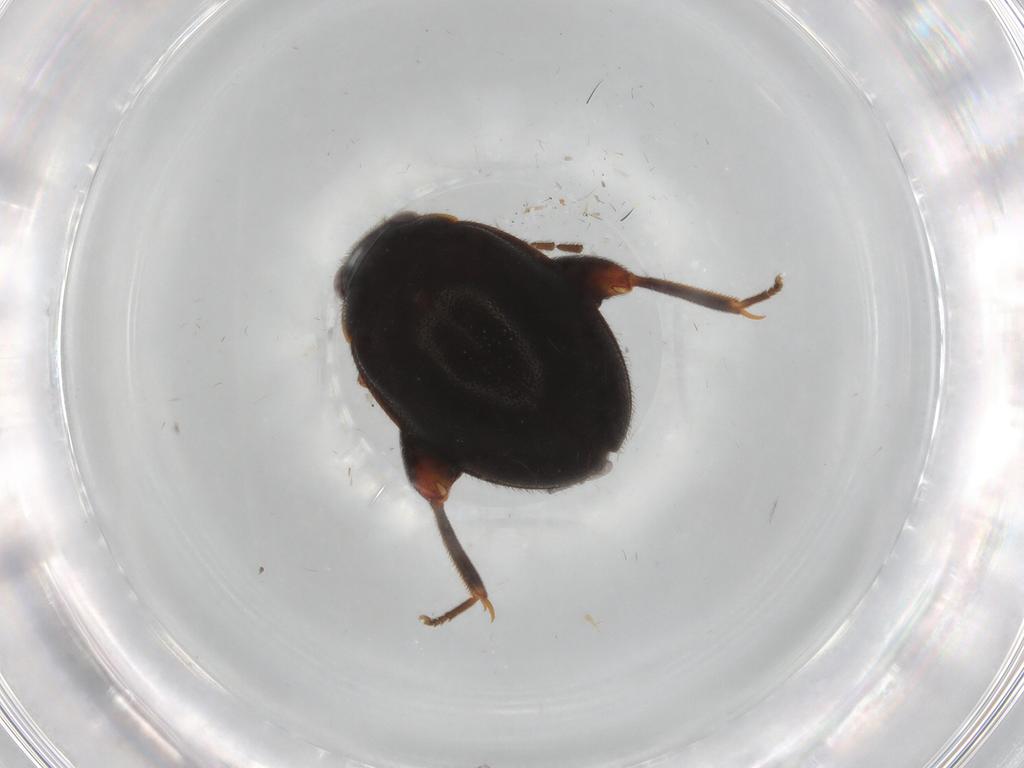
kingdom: Animalia
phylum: Arthropoda
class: Insecta
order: Coleoptera
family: Scirtidae
